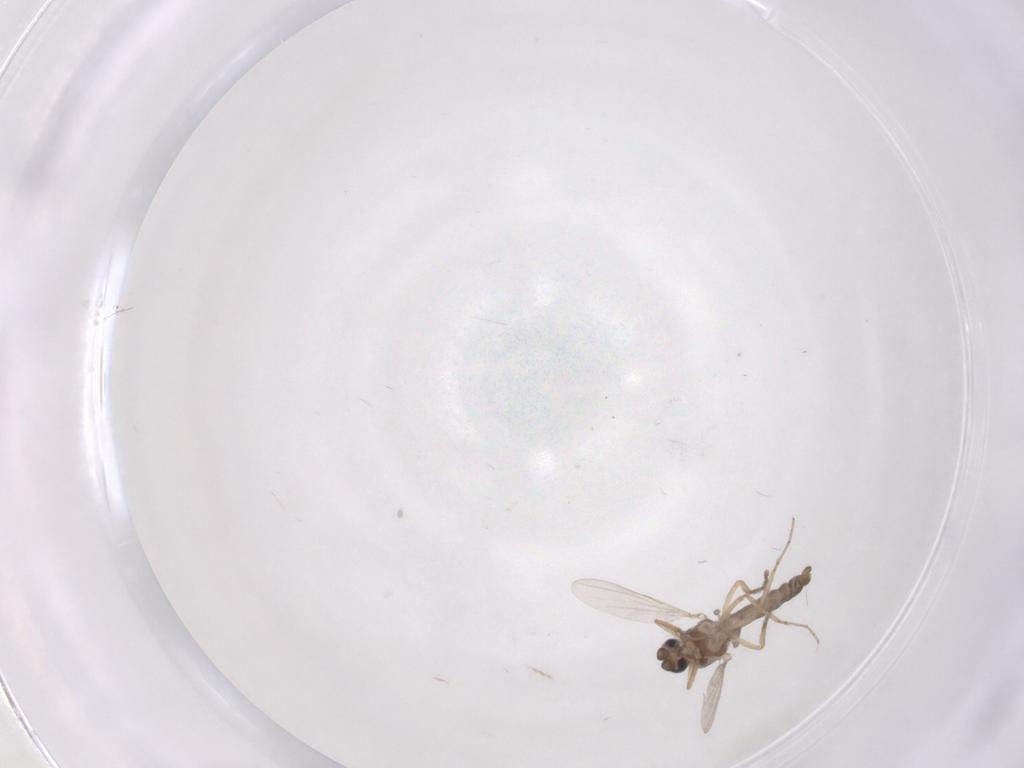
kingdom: Animalia
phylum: Arthropoda
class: Insecta
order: Diptera
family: Ceratopogonidae
